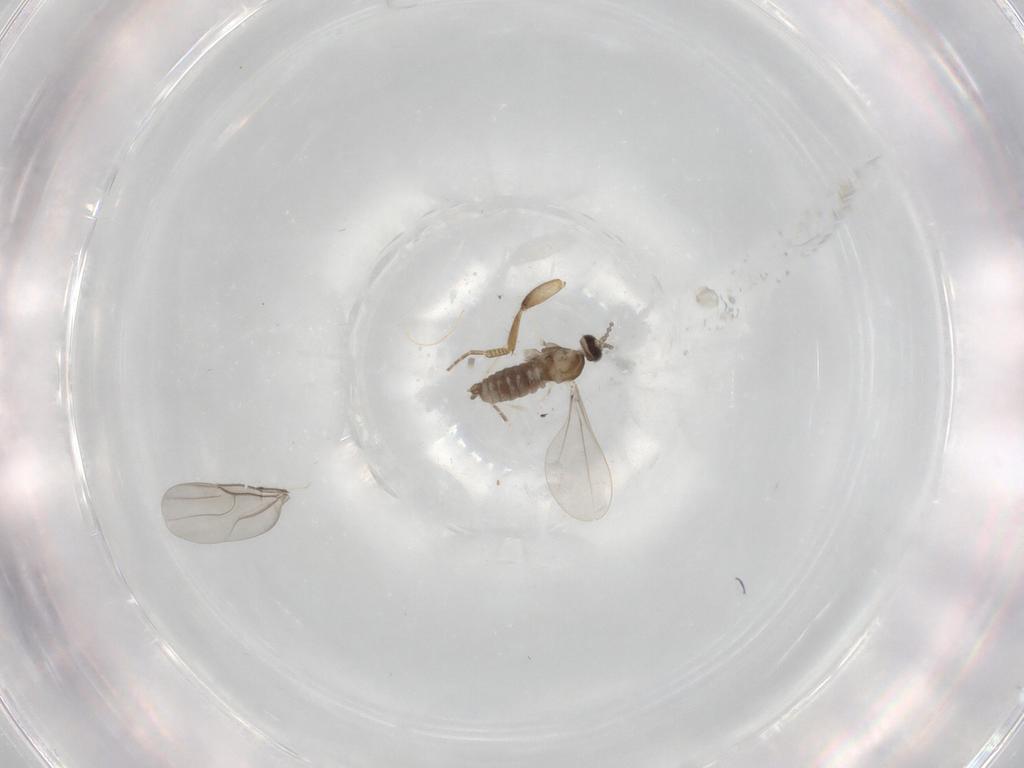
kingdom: Animalia
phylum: Arthropoda
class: Insecta
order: Diptera
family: Cecidomyiidae
